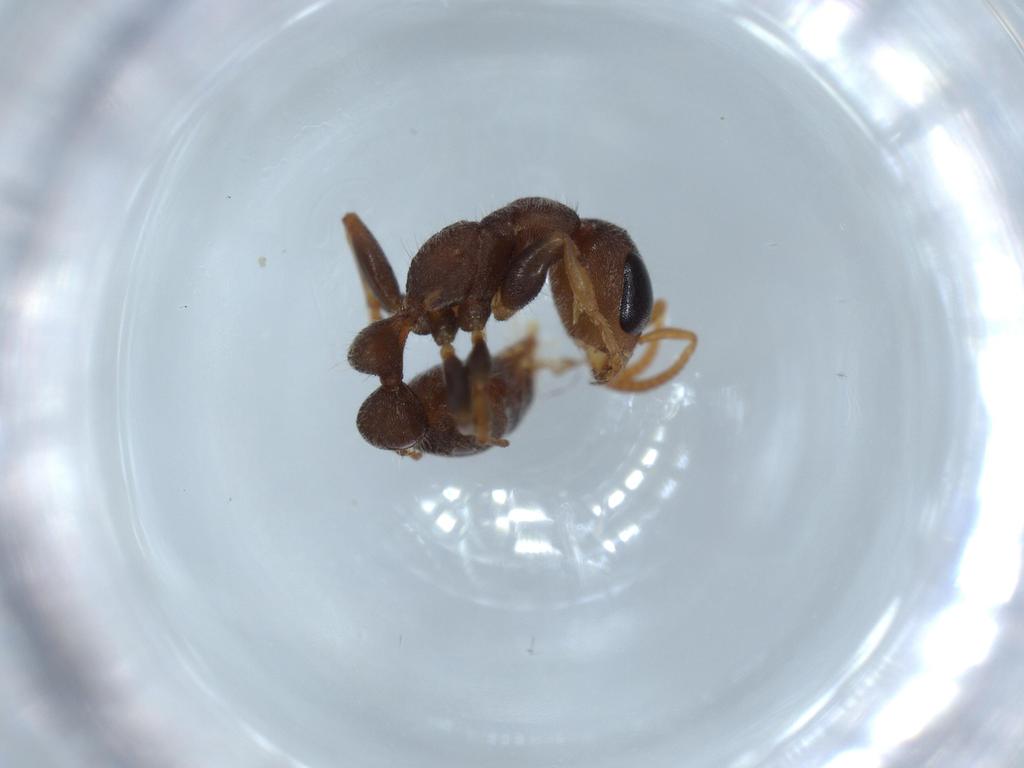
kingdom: Animalia
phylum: Arthropoda
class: Insecta
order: Hymenoptera
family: Formicidae
